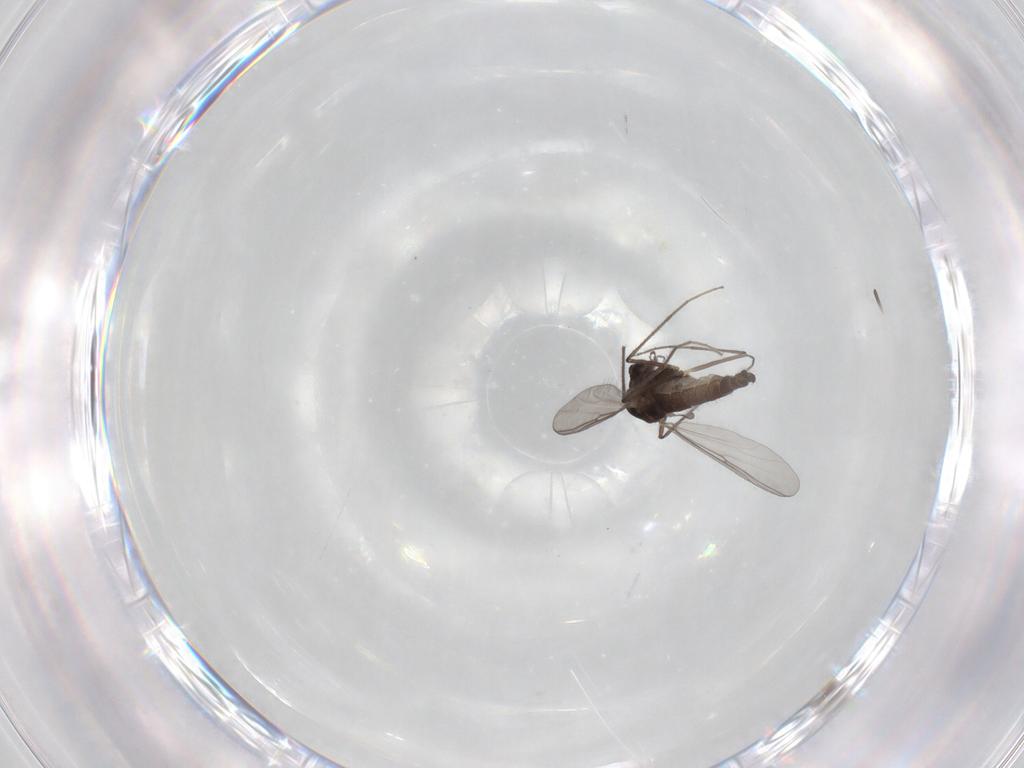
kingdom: Animalia
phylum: Arthropoda
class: Insecta
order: Diptera
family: Chironomidae
